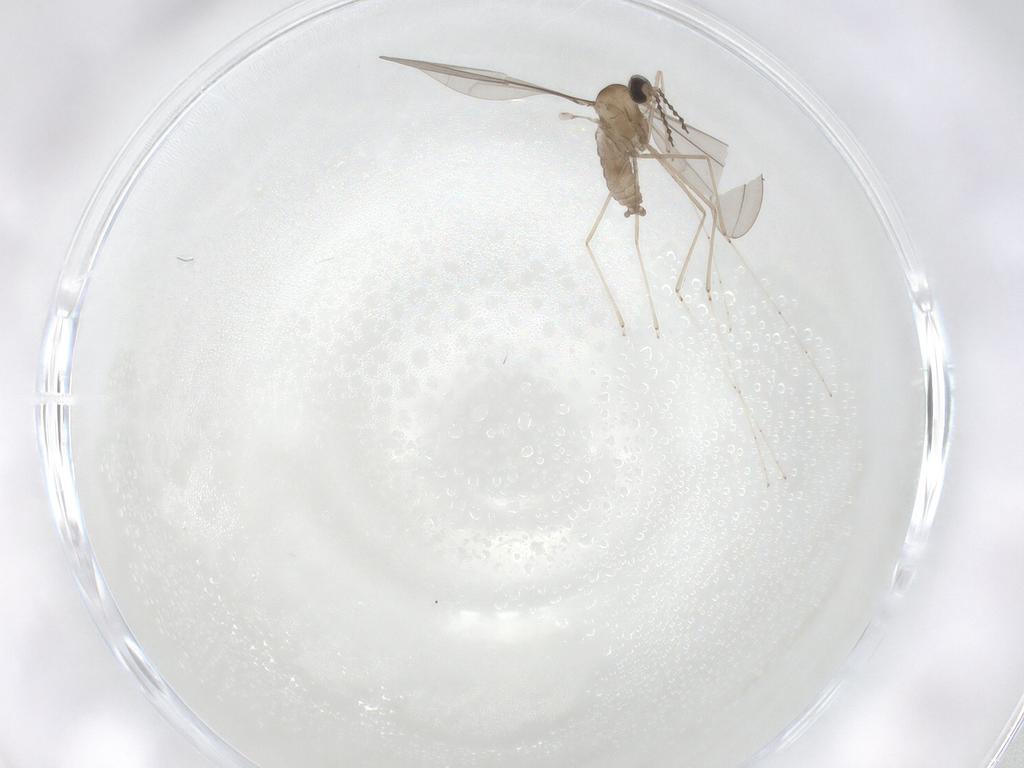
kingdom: Animalia
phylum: Arthropoda
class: Insecta
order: Diptera
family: Cecidomyiidae
